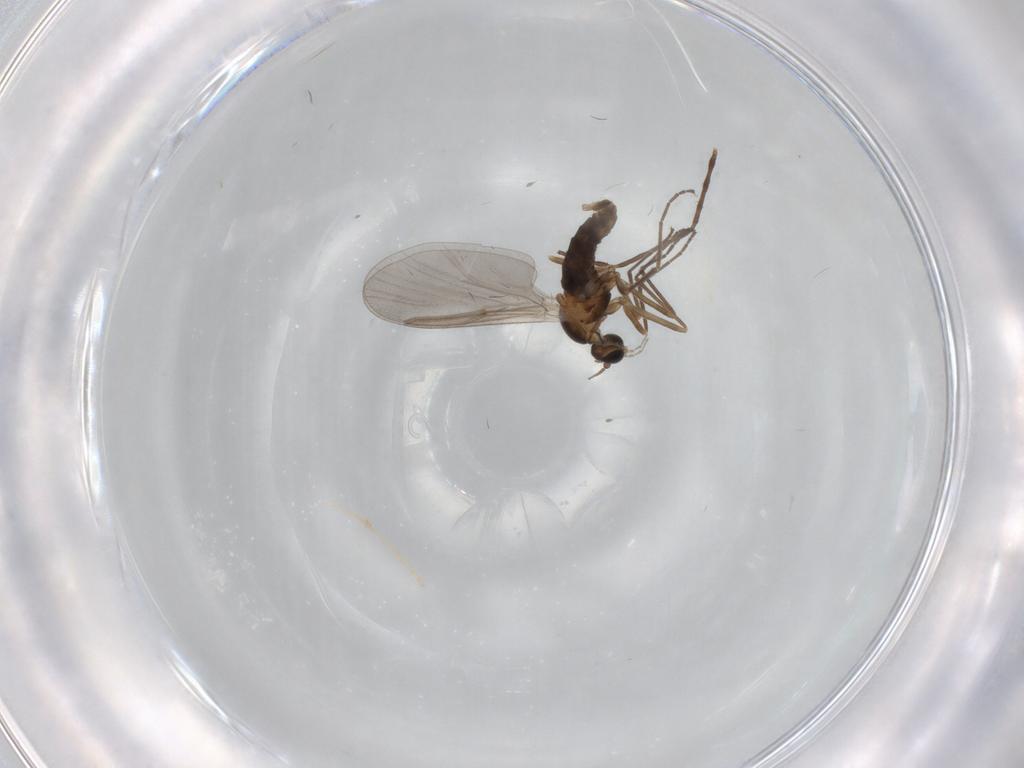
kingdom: Animalia
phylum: Arthropoda
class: Insecta
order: Diptera
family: Cecidomyiidae
